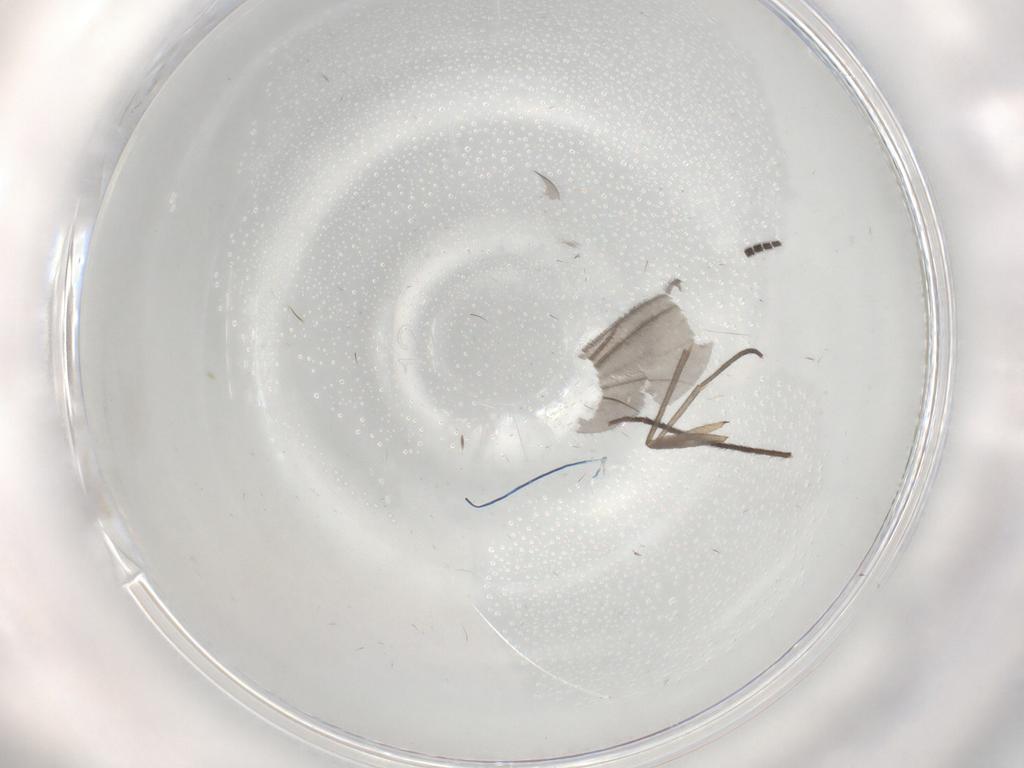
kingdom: Animalia
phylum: Arthropoda
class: Insecta
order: Diptera
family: Sciaridae
